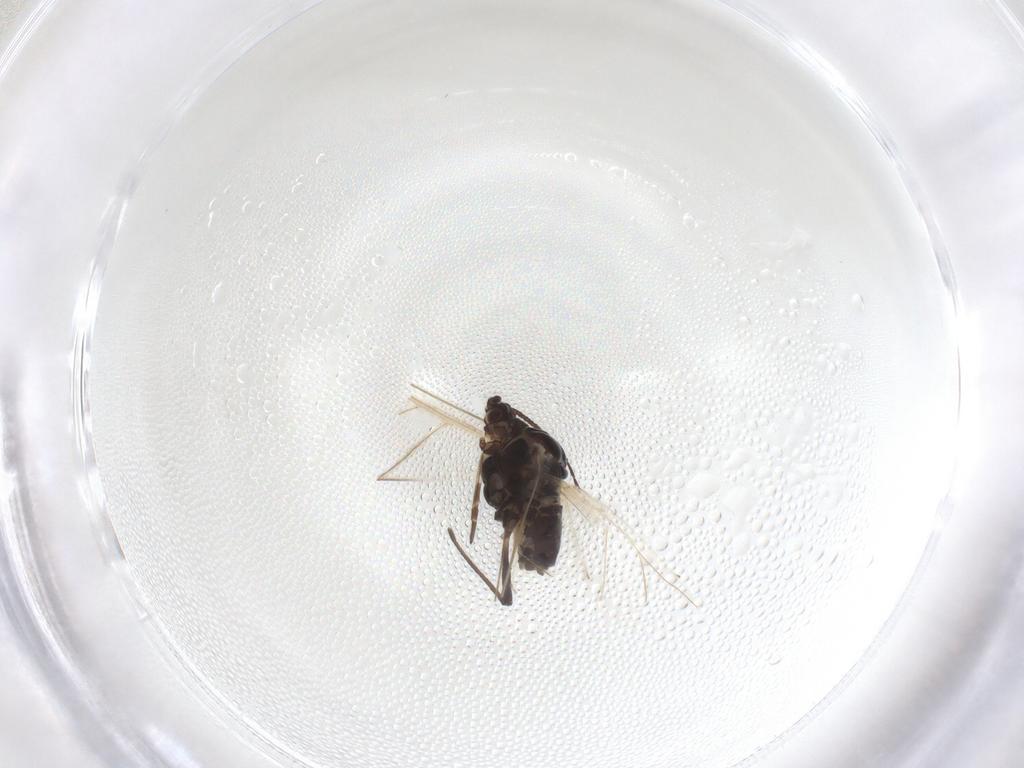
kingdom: Animalia
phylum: Arthropoda
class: Insecta
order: Hemiptera
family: Aphididae
